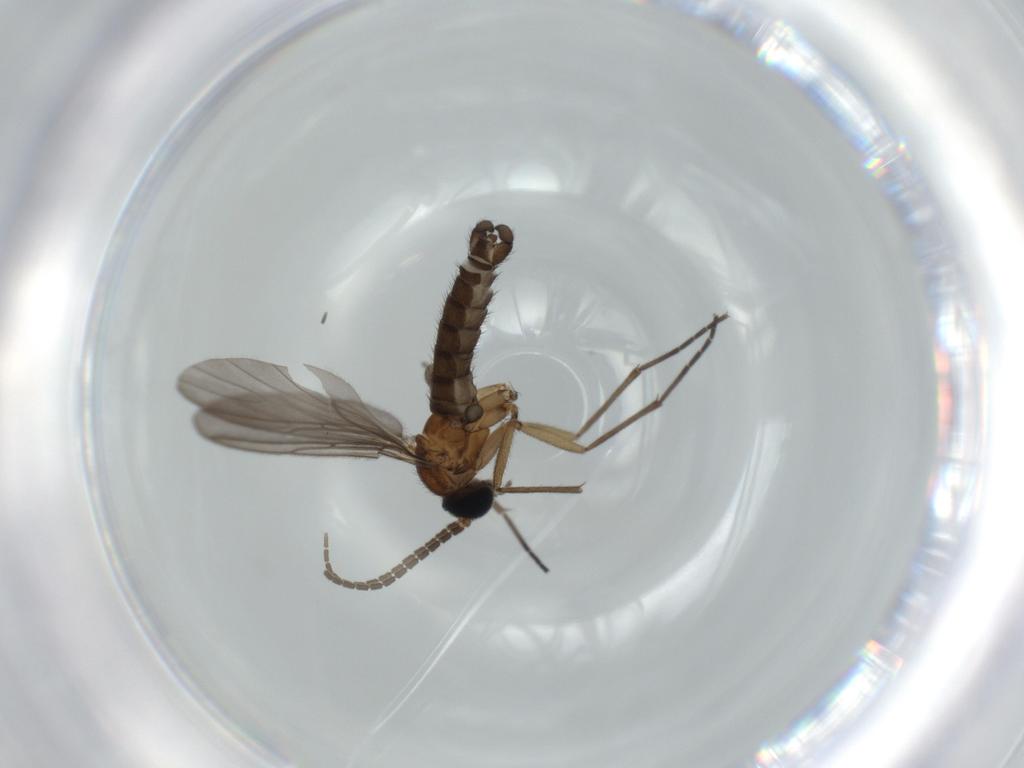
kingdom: Animalia
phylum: Arthropoda
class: Insecta
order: Diptera
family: Sciaridae
